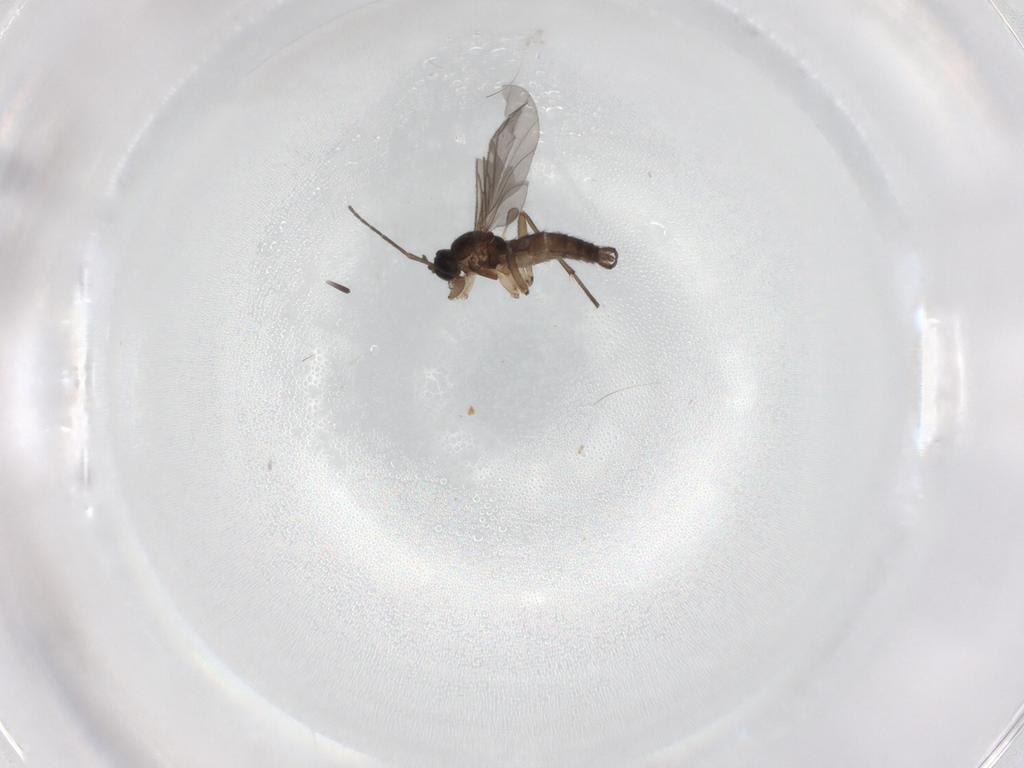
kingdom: Animalia
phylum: Arthropoda
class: Insecta
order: Diptera
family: Sciaridae
